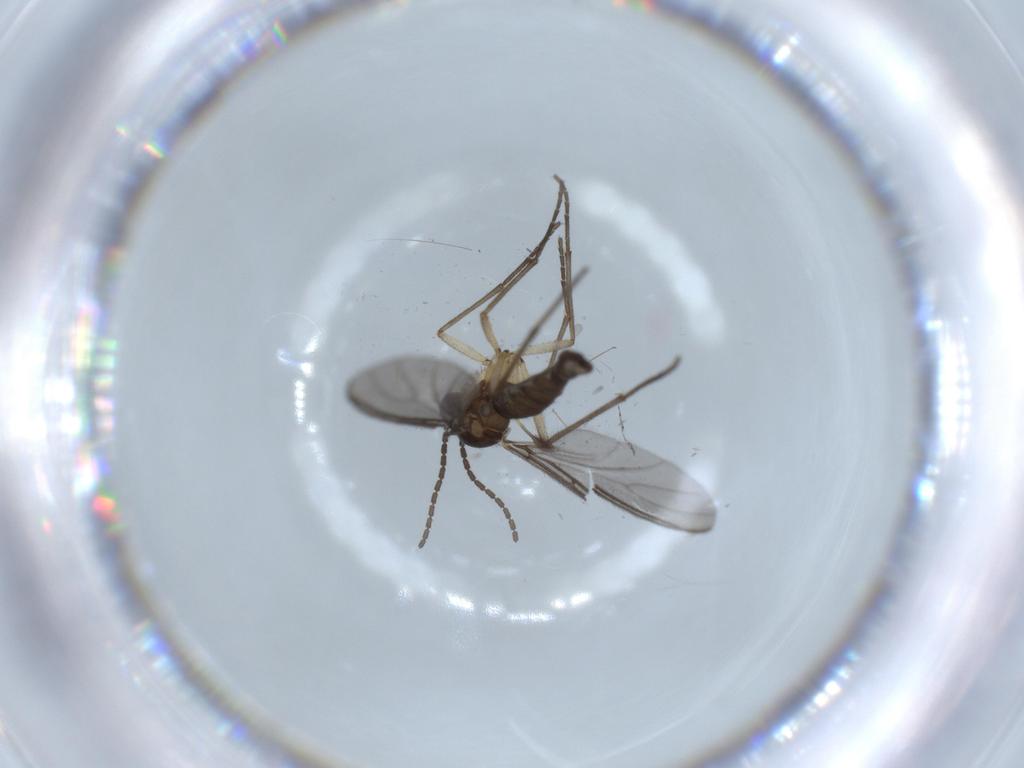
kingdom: Animalia
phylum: Arthropoda
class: Insecta
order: Diptera
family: Sciaridae
